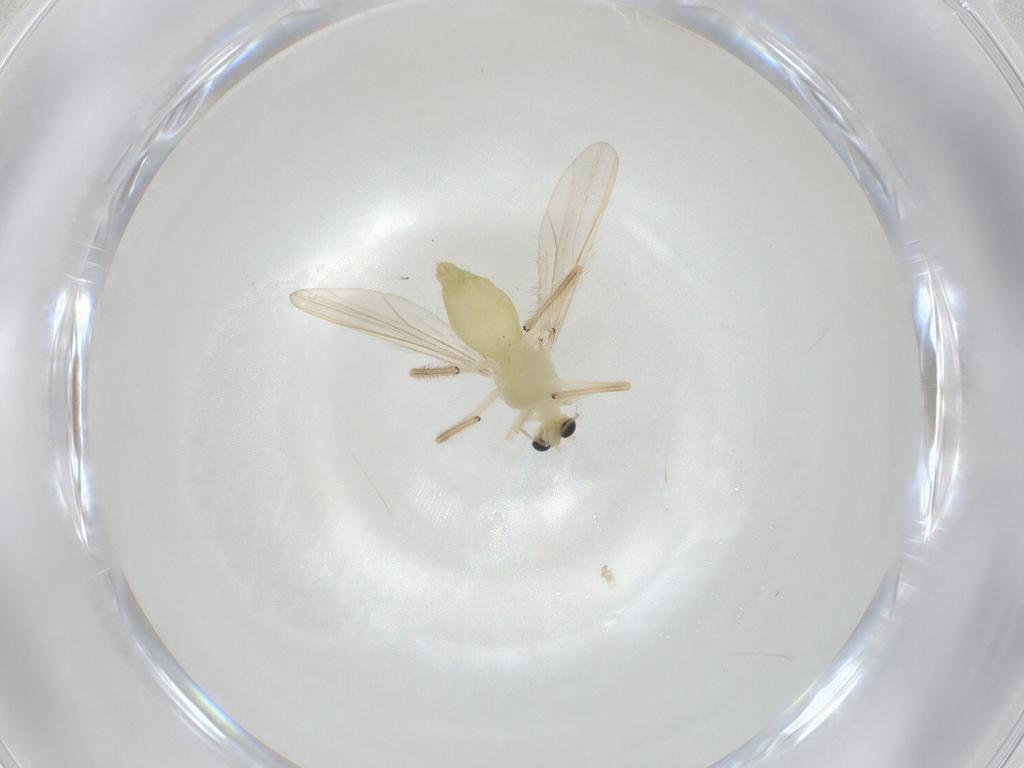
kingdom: Animalia
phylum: Arthropoda
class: Insecta
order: Diptera
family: Chironomidae
